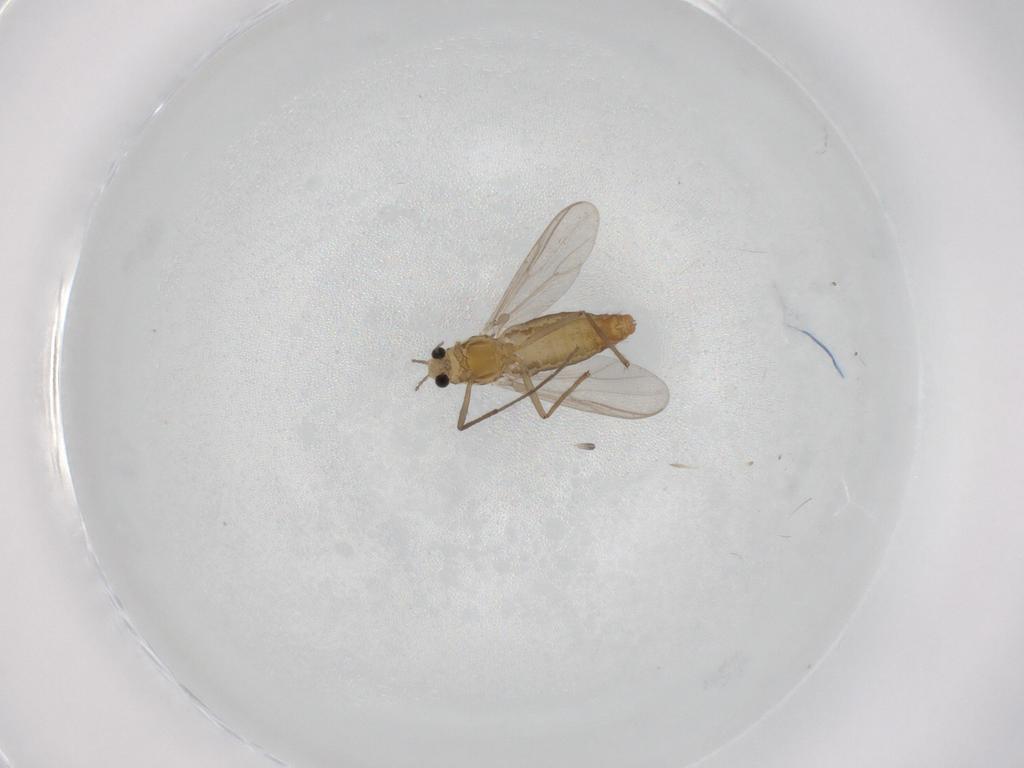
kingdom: Animalia
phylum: Arthropoda
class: Insecta
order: Diptera
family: Chironomidae
